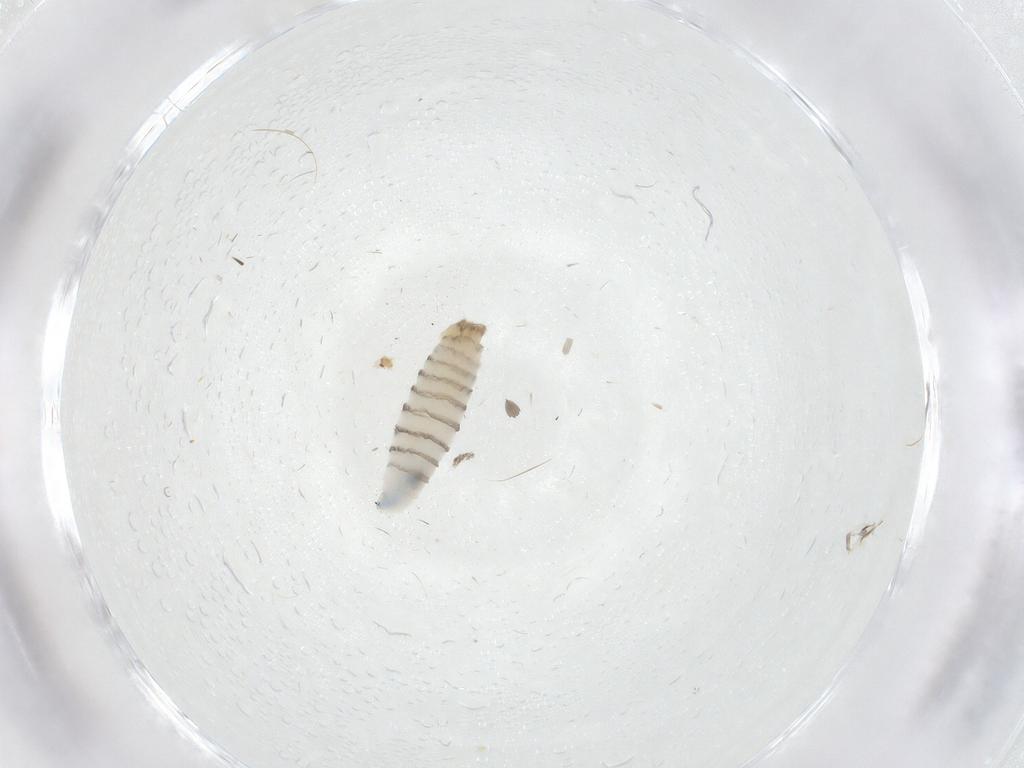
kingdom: Animalia
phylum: Arthropoda
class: Insecta
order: Diptera
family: Sarcophagidae
